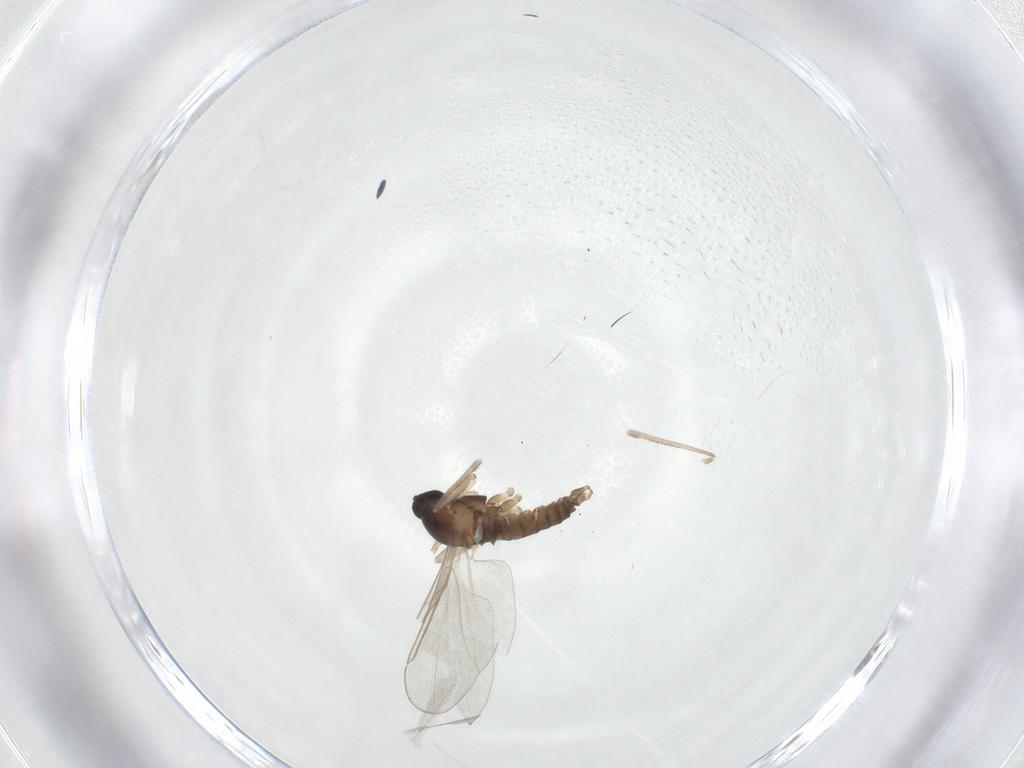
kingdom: Animalia
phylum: Arthropoda
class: Insecta
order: Diptera
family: Cecidomyiidae
